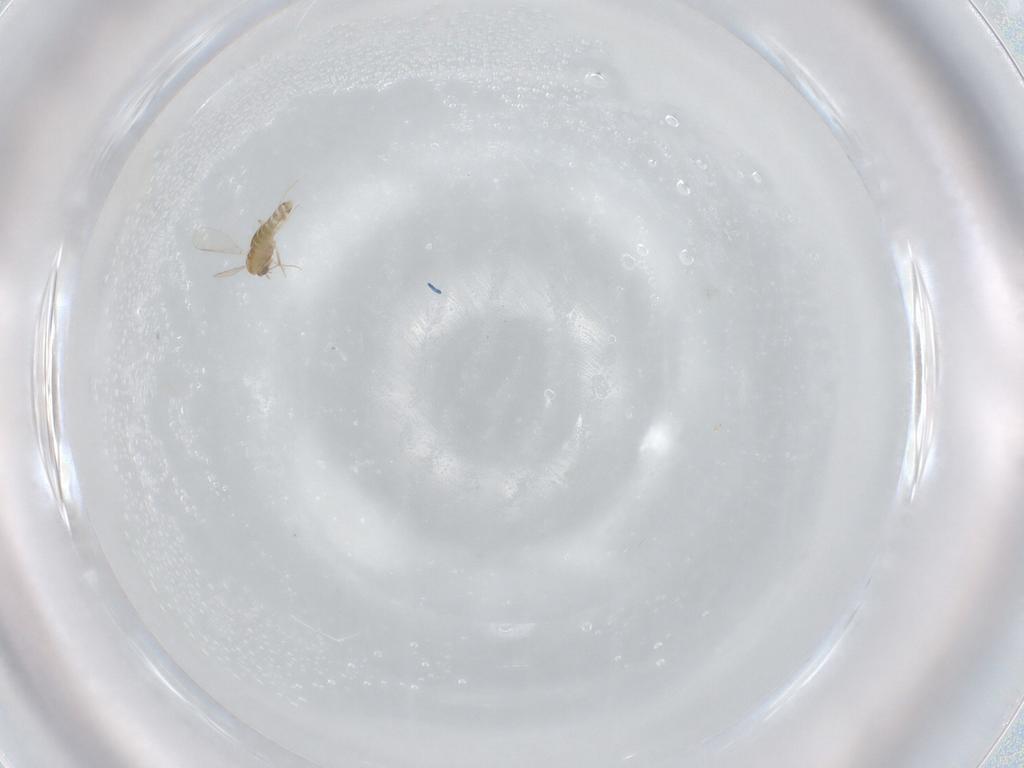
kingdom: Animalia
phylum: Arthropoda
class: Insecta
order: Diptera
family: Chironomidae
